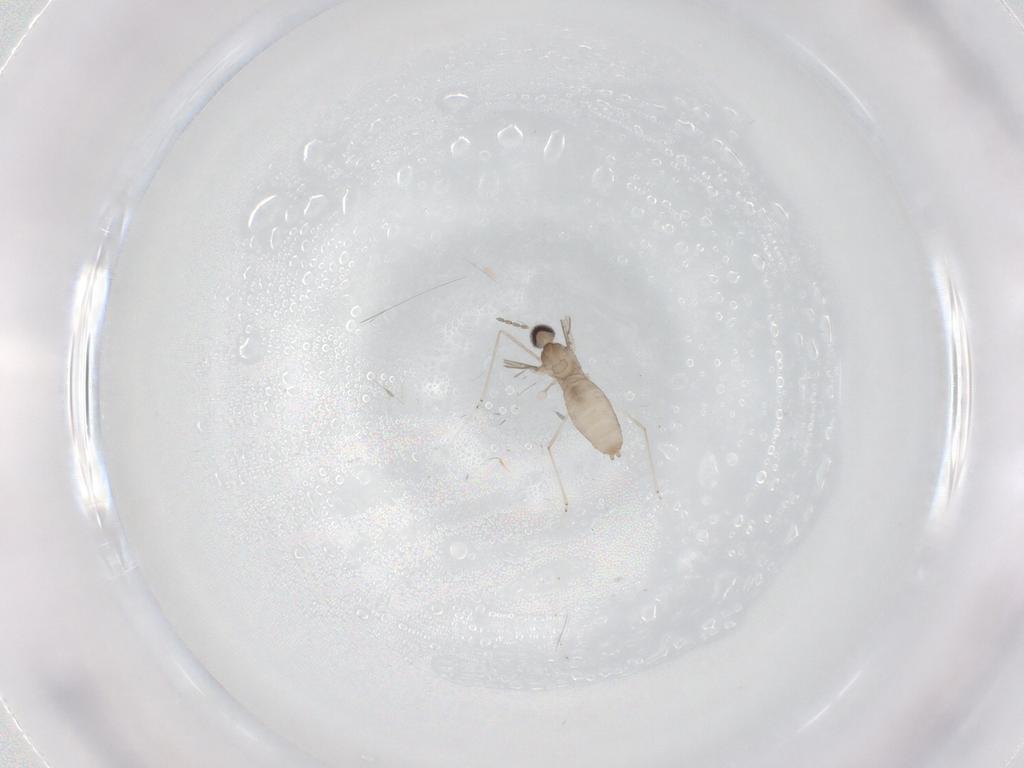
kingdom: Animalia
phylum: Arthropoda
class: Insecta
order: Diptera
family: Cecidomyiidae
